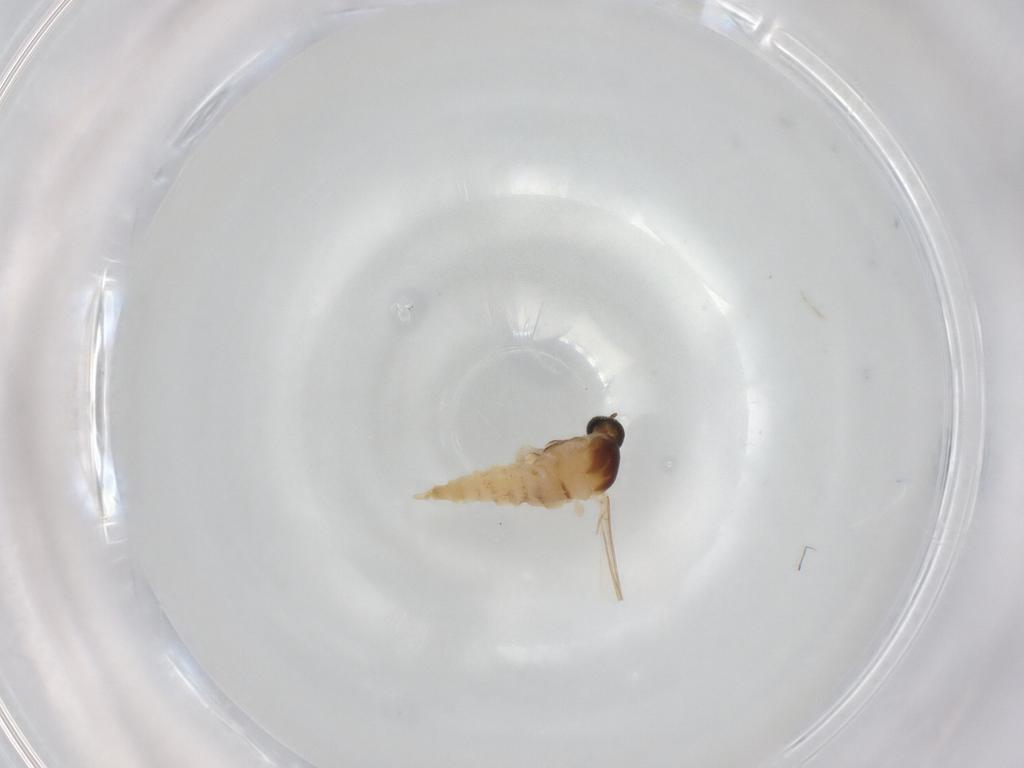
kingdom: Animalia
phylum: Arthropoda
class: Insecta
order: Diptera
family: Cecidomyiidae
